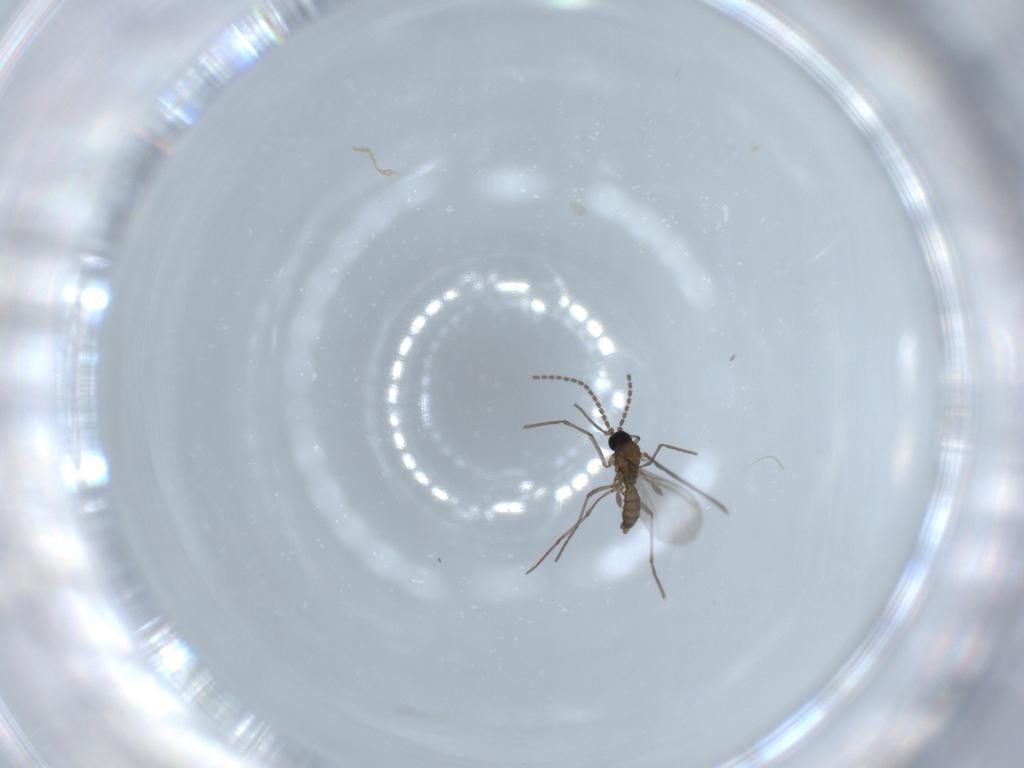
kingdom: Animalia
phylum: Arthropoda
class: Insecta
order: Diptera
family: Sciaridae
